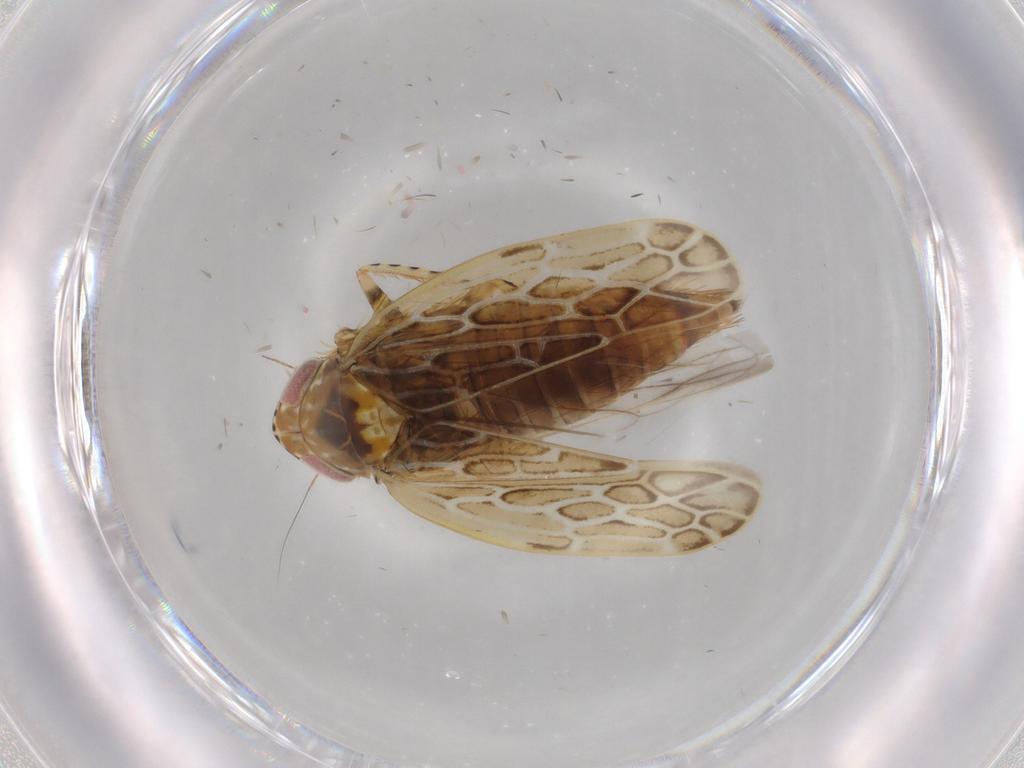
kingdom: Animalia
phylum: Arthropoda
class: Insecta
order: Hemiptera
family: Cicadellidae
